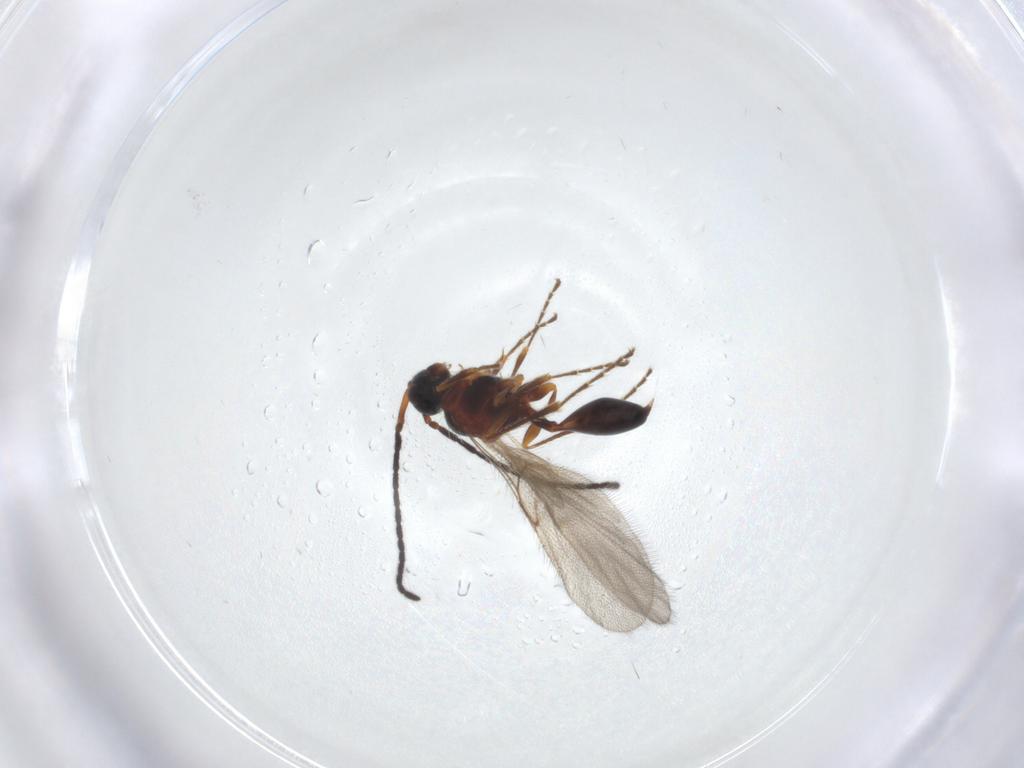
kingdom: Animalia
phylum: Arthropoda
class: Insecta
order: Hymenoptera
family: Diapriidae
